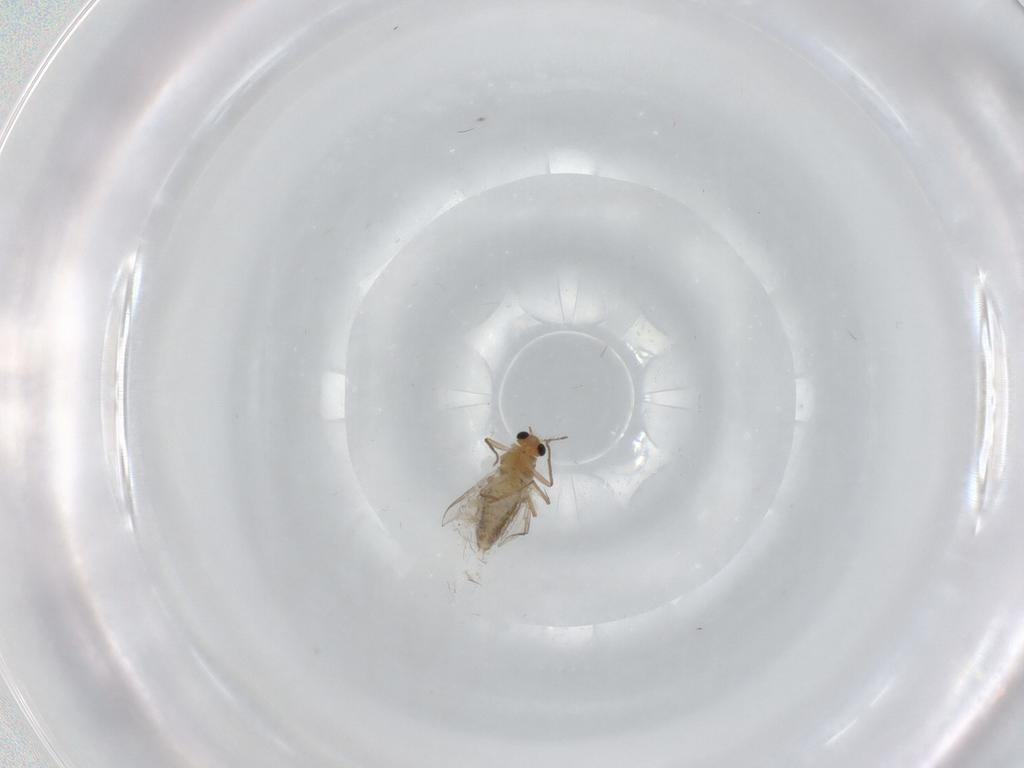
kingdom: Animalia
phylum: Arthropoda
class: Insecta
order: Diptera
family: Chironomidae
